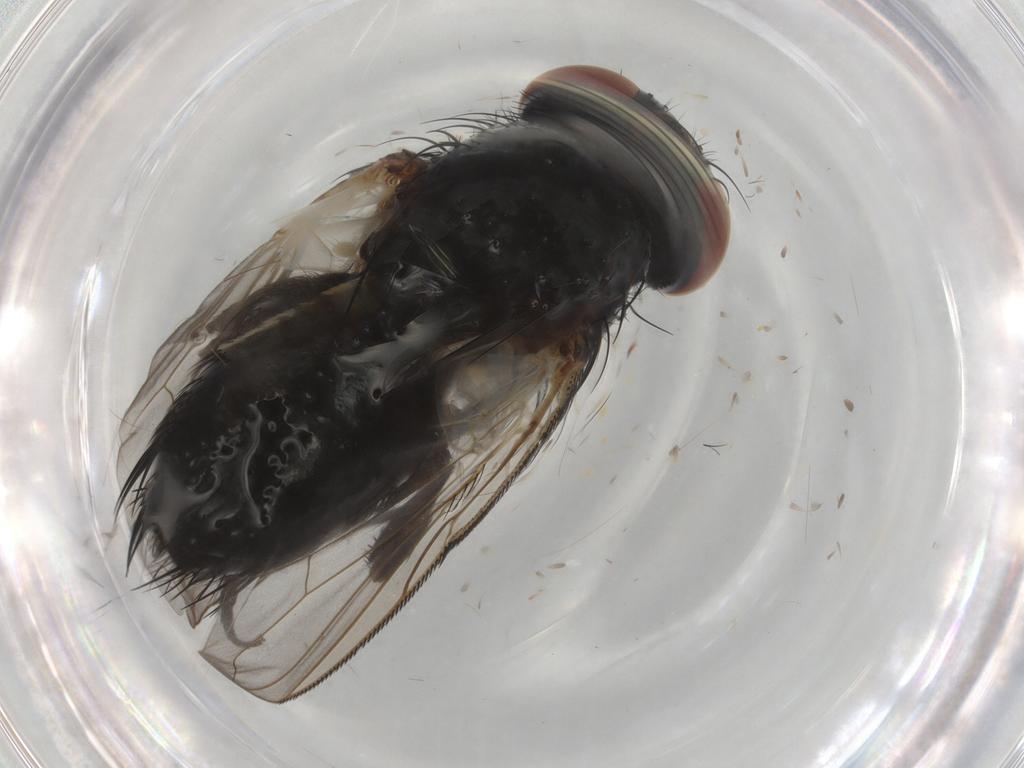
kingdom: Animalia
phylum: Arthropoda
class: Insecta
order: Diptera
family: Tachinidae
